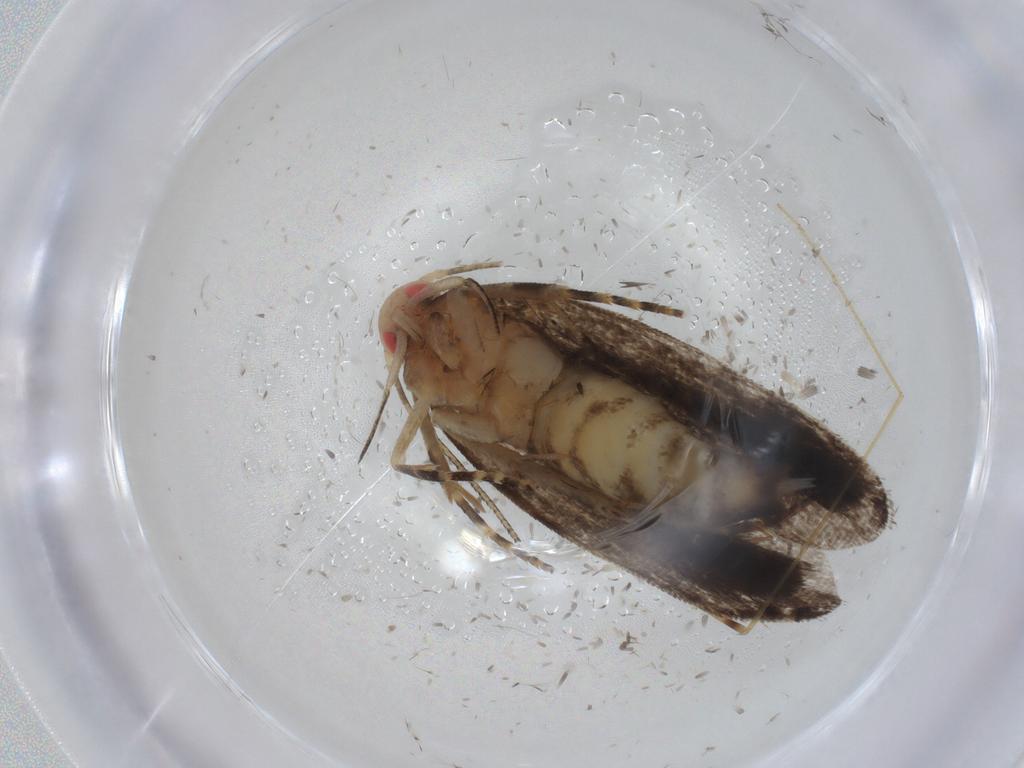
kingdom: Animalia
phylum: Arthropoda
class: Insecta
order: Lepidoptera
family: Crambidae
